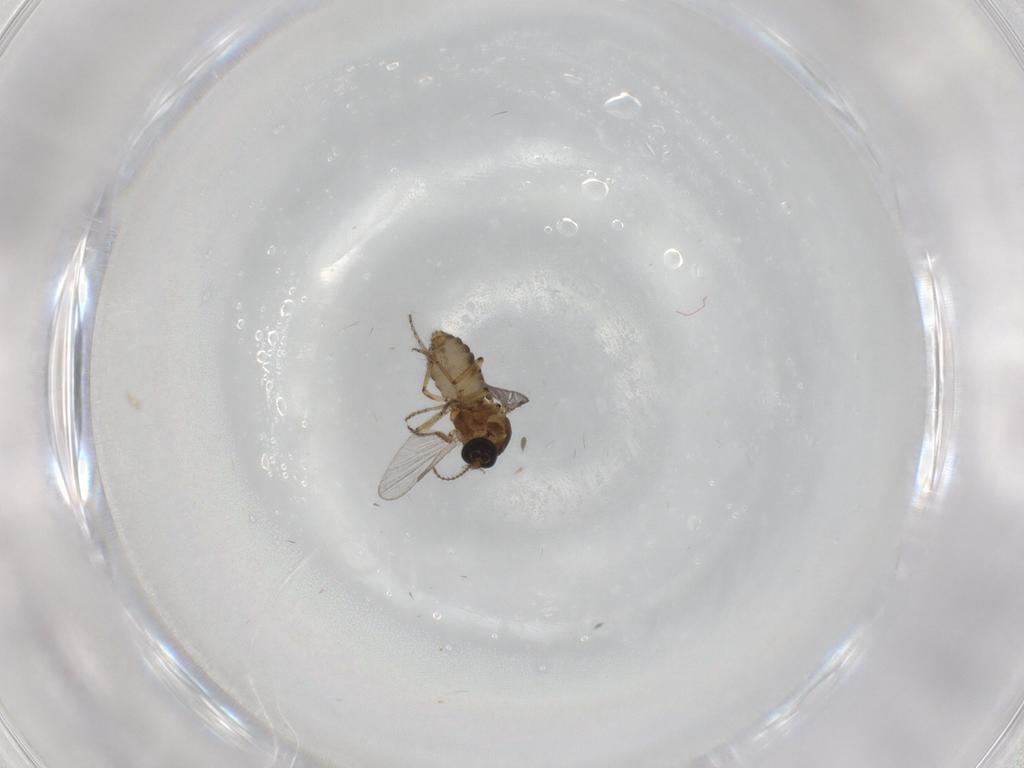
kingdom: Animalia
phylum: Arthropoda
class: Insecta
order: Diptera
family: Ceratopogonidae
